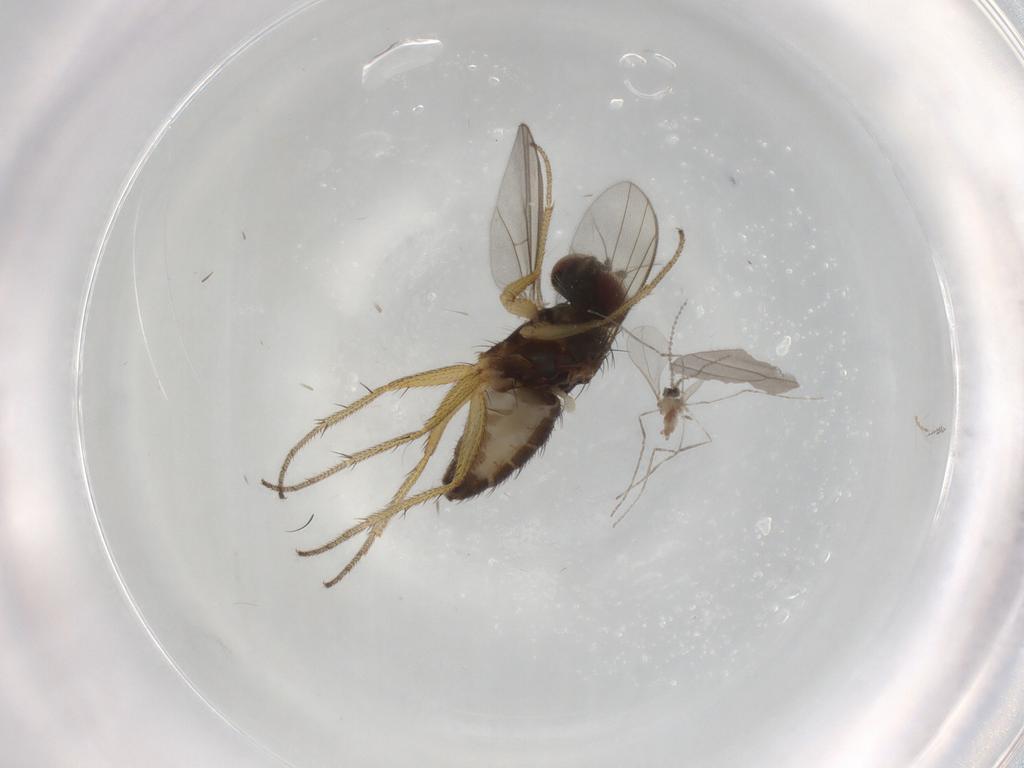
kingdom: Animalia
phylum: Arthropoda
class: Insecta
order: Diptera
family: Cecidomyiidae
